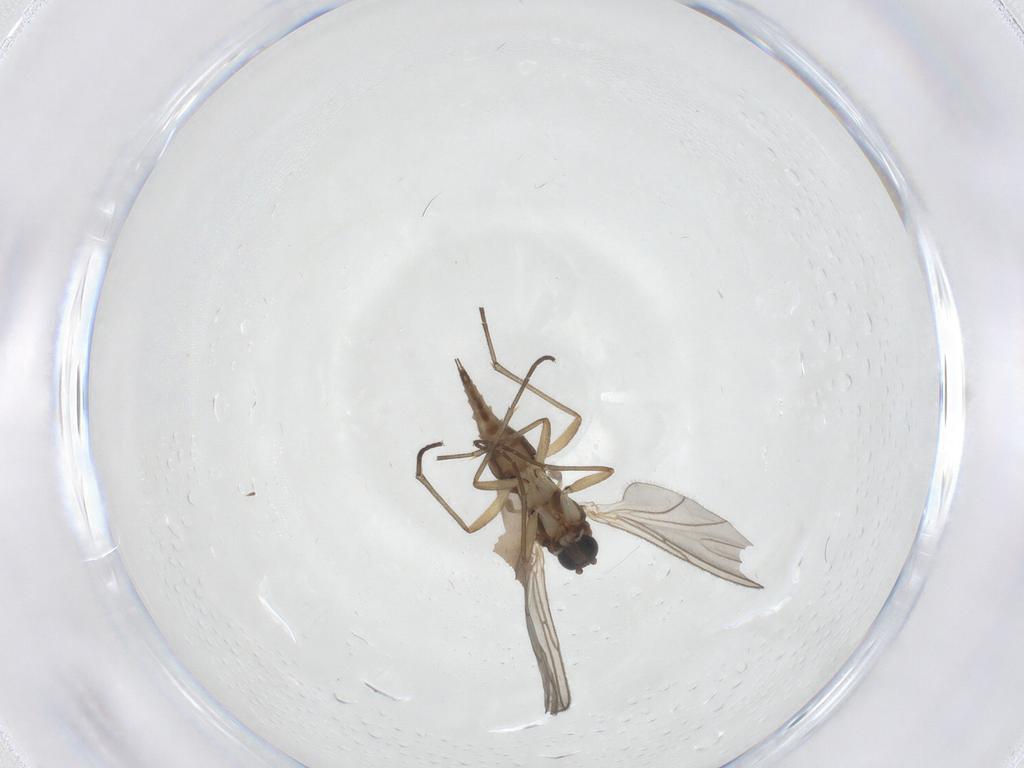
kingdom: Animalia
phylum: Arthropoda
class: Insecta
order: Diptera
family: Sciaridae
